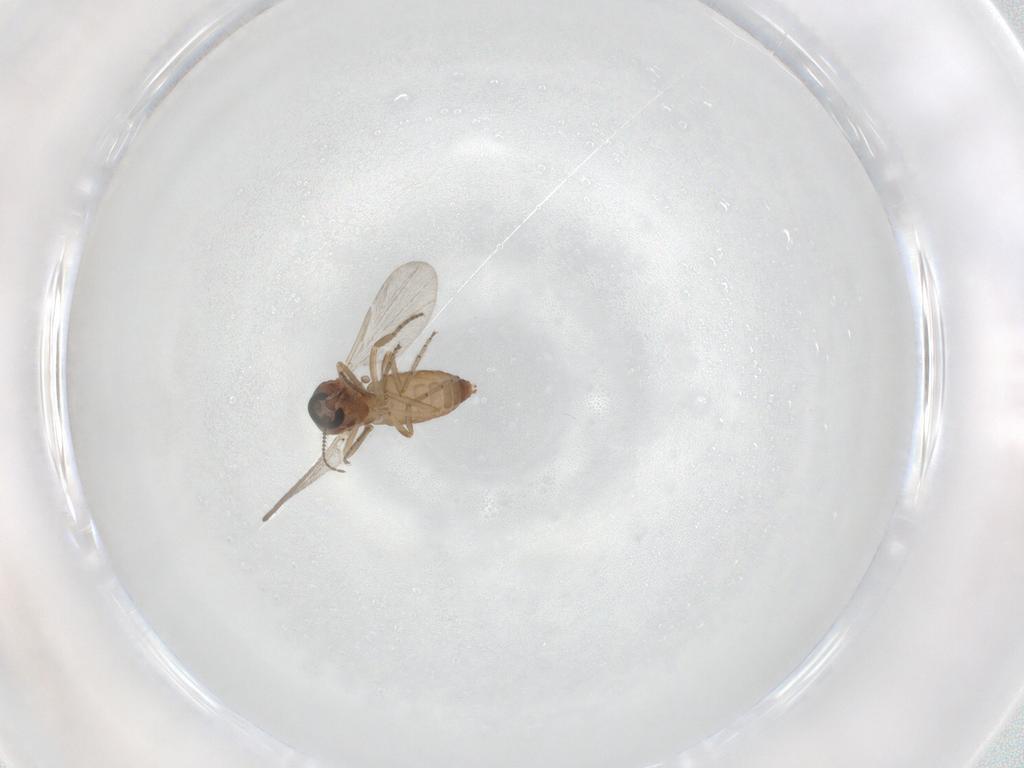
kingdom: Animalia
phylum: Arthropoda
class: Insecta
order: Diptera
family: Ceratopogonidae
